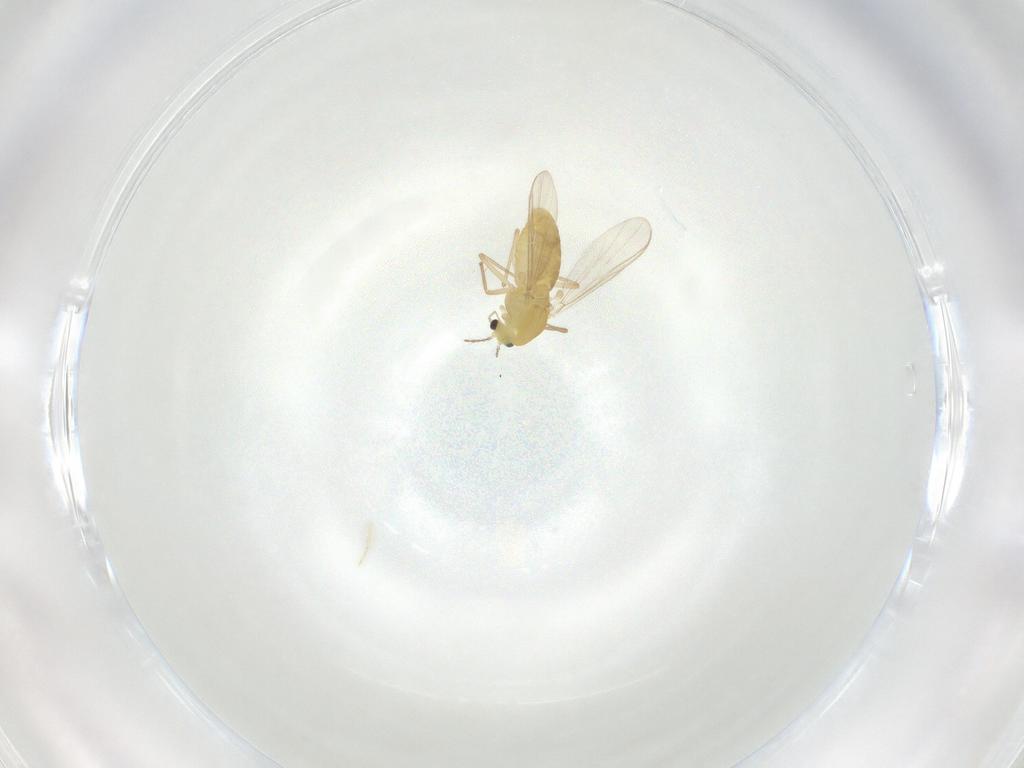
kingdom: Animalia
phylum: Arthropoda
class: Insecta
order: Diptera
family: Chironomidae
